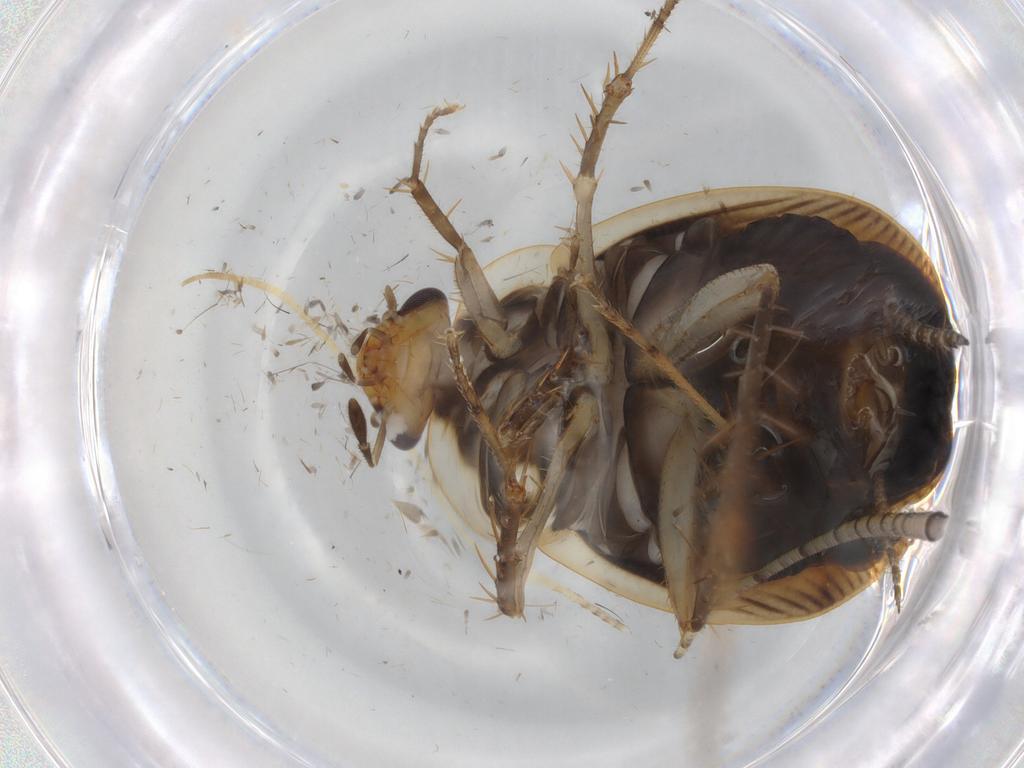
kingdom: Animalia
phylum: Arthropoda
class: Insecta
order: Blattodea
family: Ectobiidae
